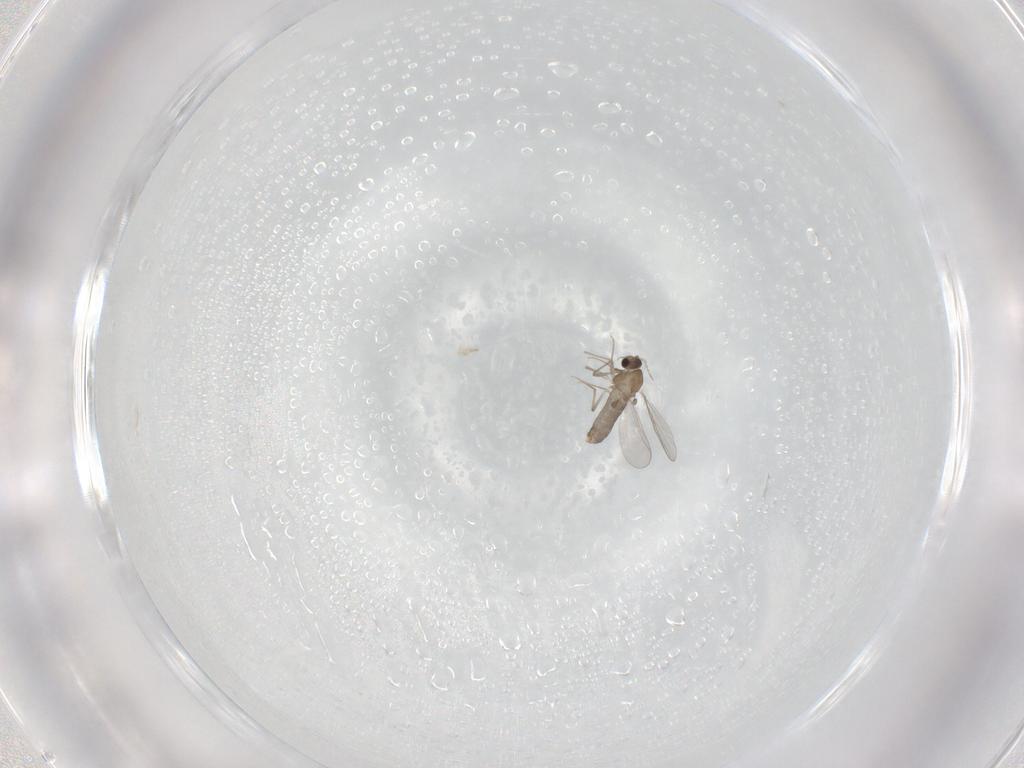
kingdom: Animalia
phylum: Arthropoda
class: Insecta
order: Diptera
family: Chironomidae
